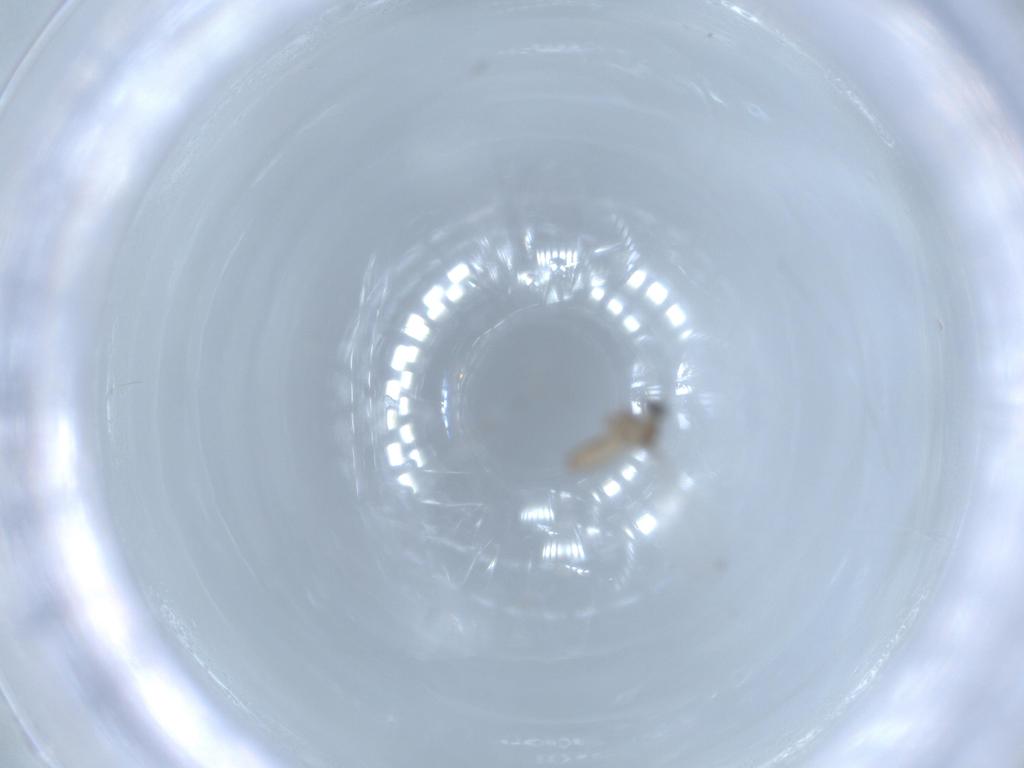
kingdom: Animalia
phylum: Arthropoda
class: Insecta
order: Diptera
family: Cecidomyiidae
